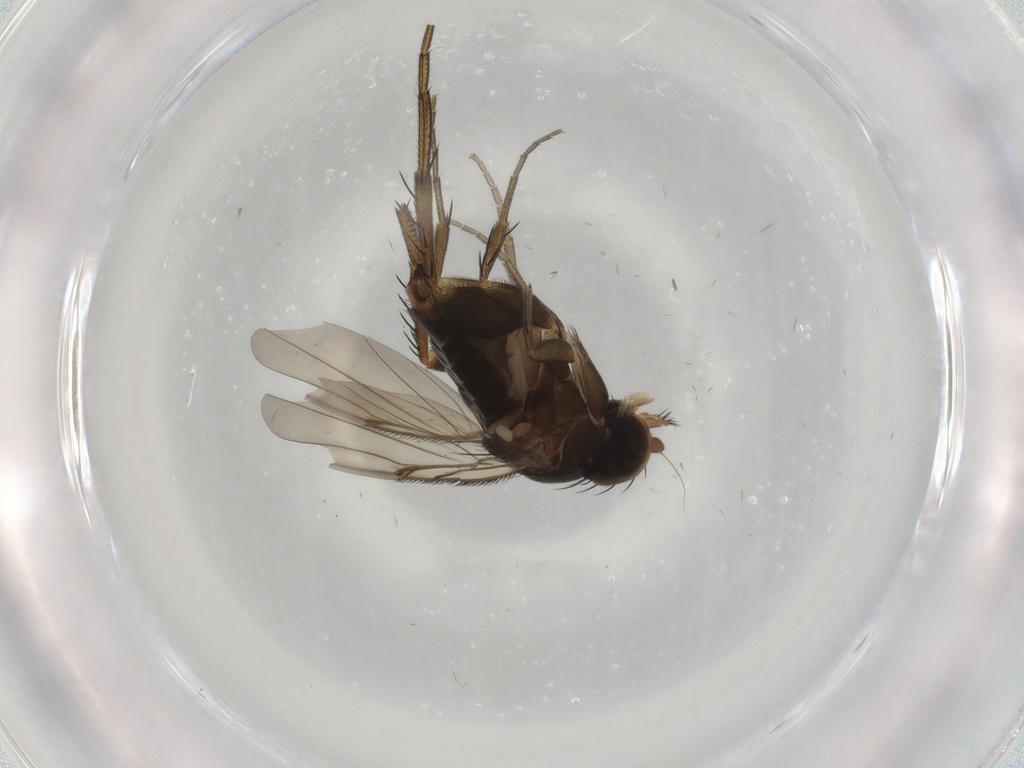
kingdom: Animalia
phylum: Arthropoda
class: Insecta
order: Diptera
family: Phoridae
